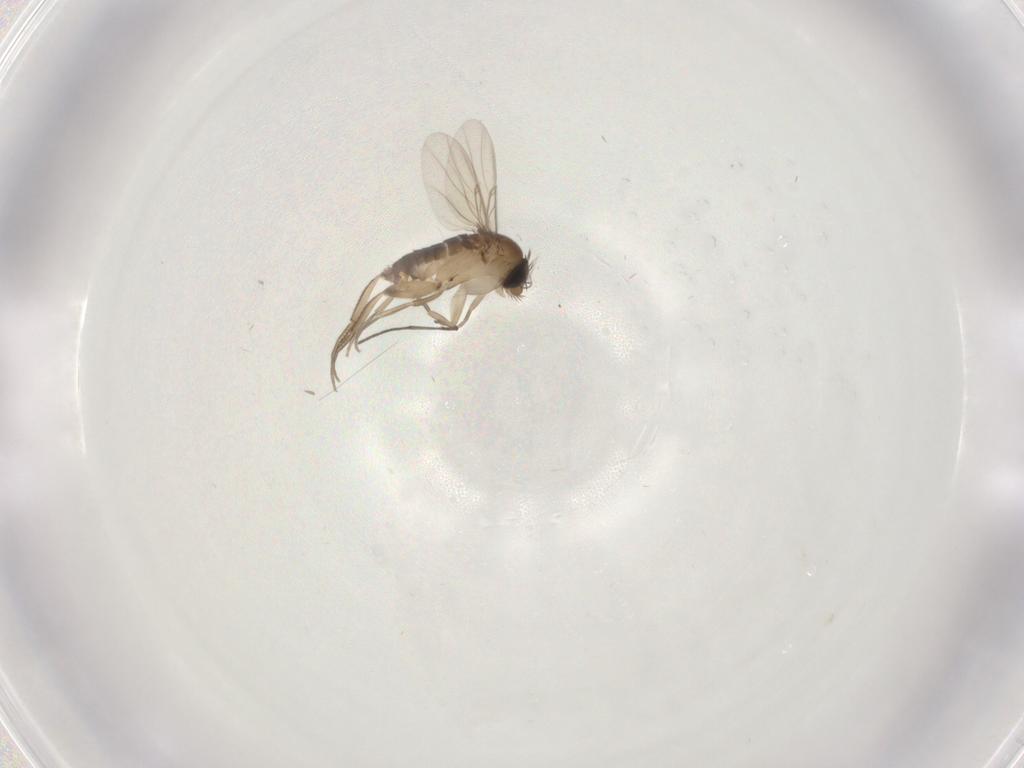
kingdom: Animalia
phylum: Arthropoda
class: Insecta
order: Diptera
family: Phoridae
